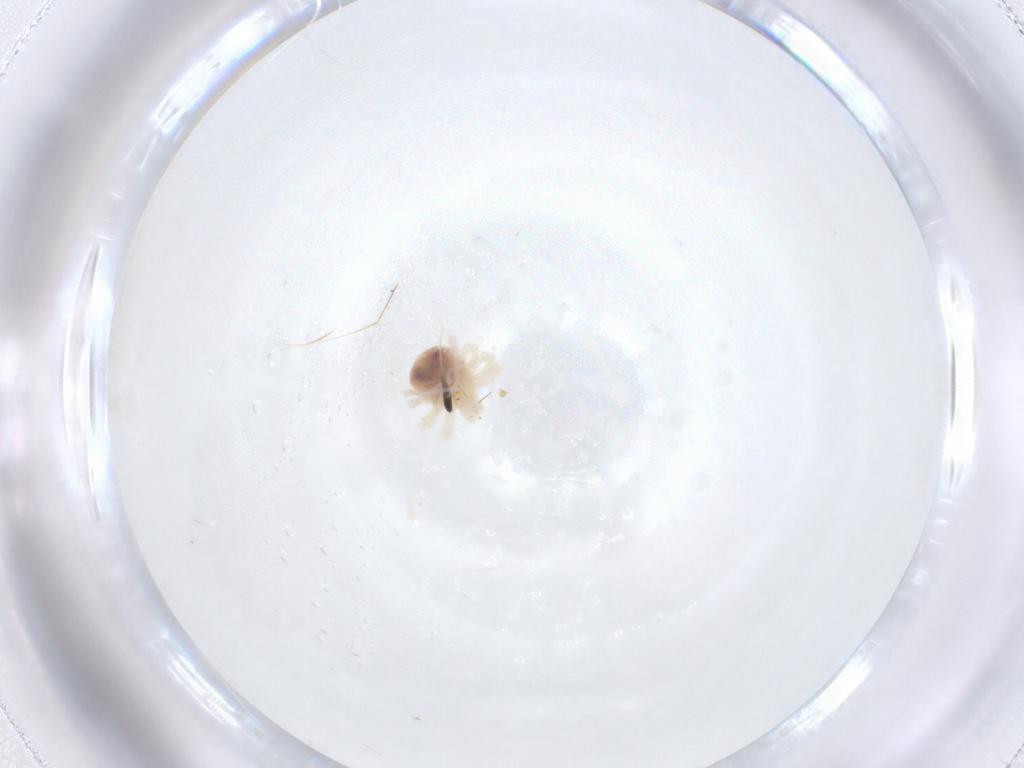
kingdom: Animalia
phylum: Arthropoda
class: Arachnida
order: Trombidiformes
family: Anystidae
